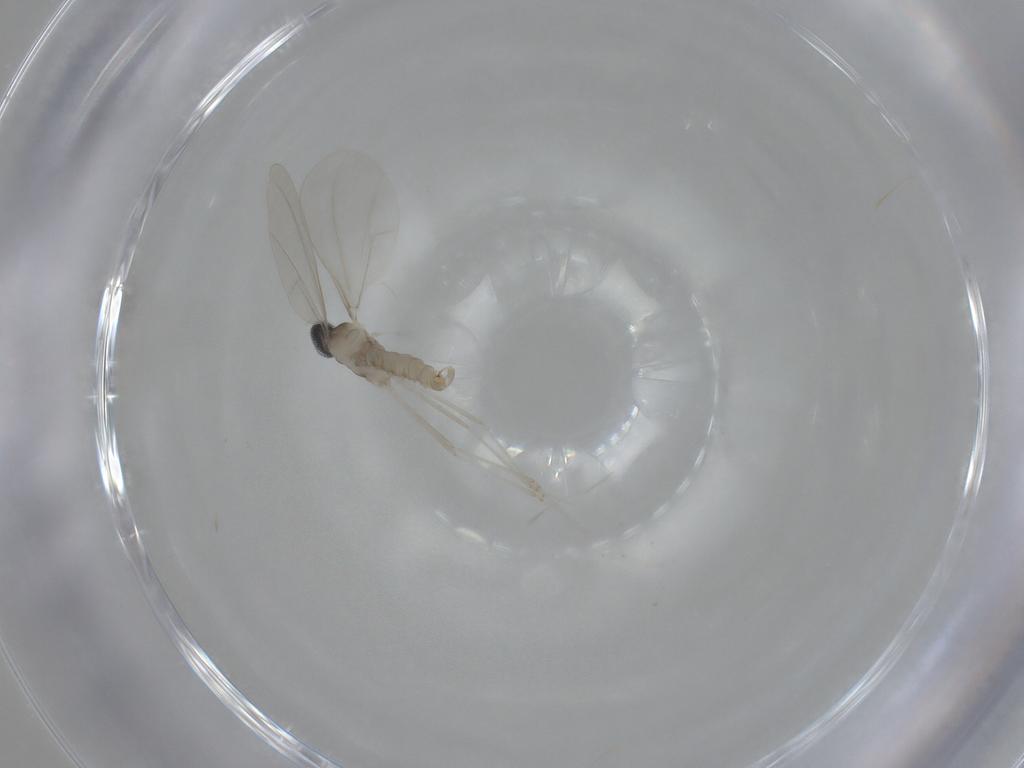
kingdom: Animalia
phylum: Arthropoda
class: Insecta
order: Diptera
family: Cecidomyiidae
